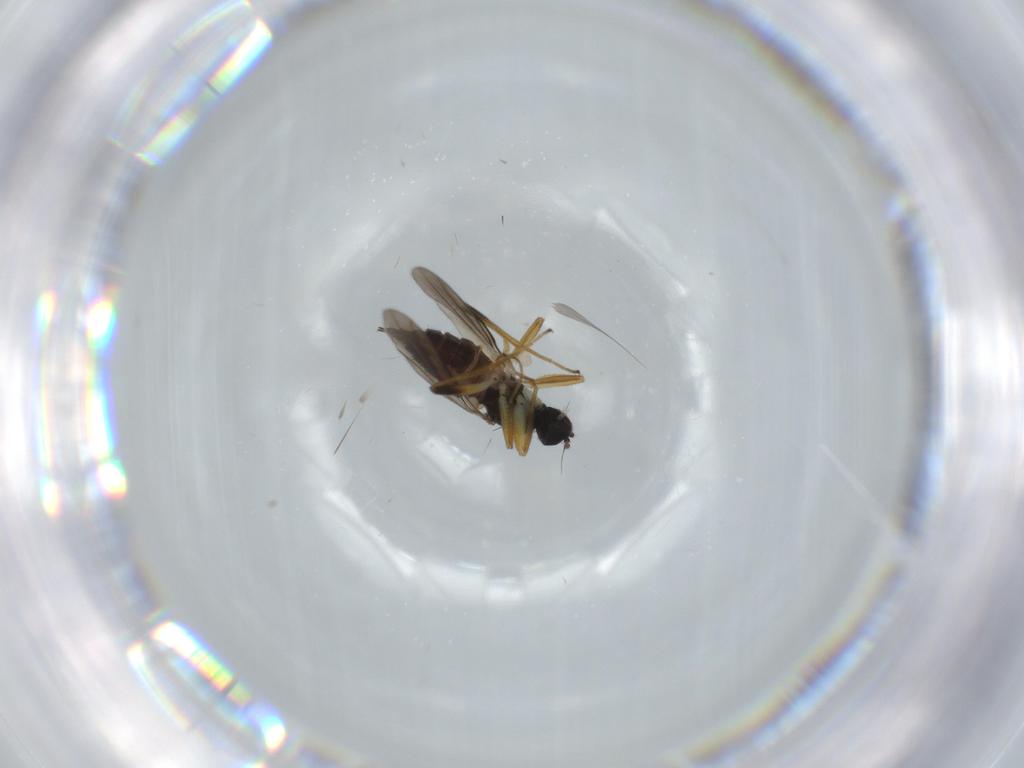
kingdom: Animalia
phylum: Arthropoda
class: Insecta
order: Diptera
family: Hybotidae
